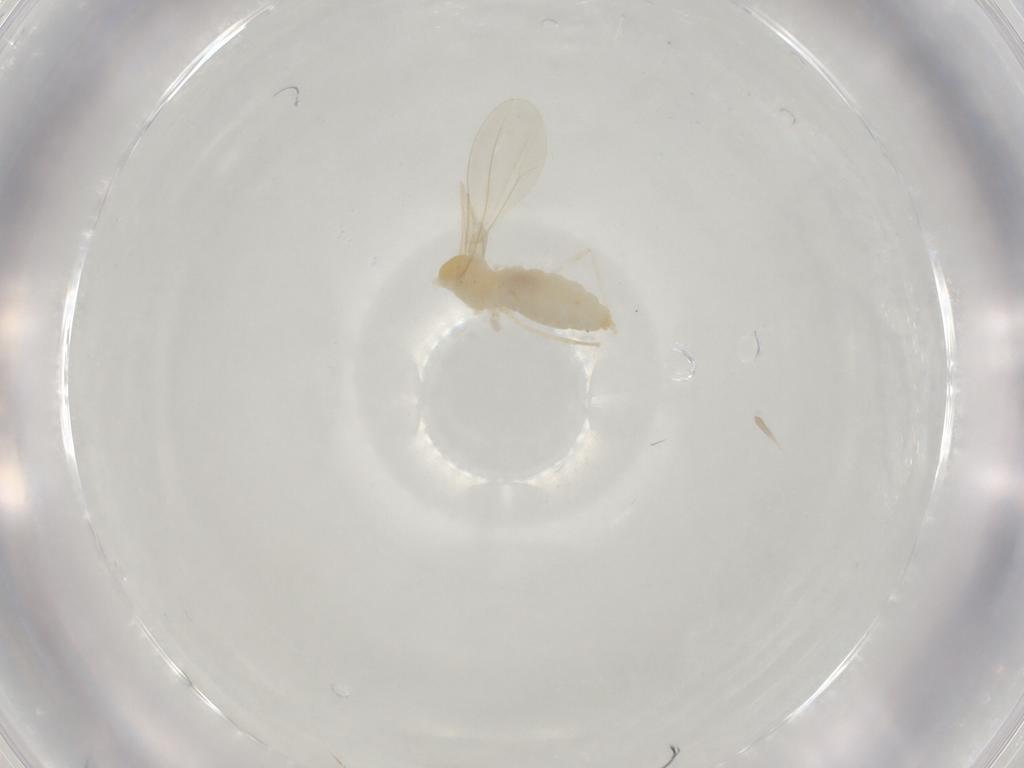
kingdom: Animalia
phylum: Arthropoda
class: Insecta
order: Diptera
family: Cecidomyiidae
